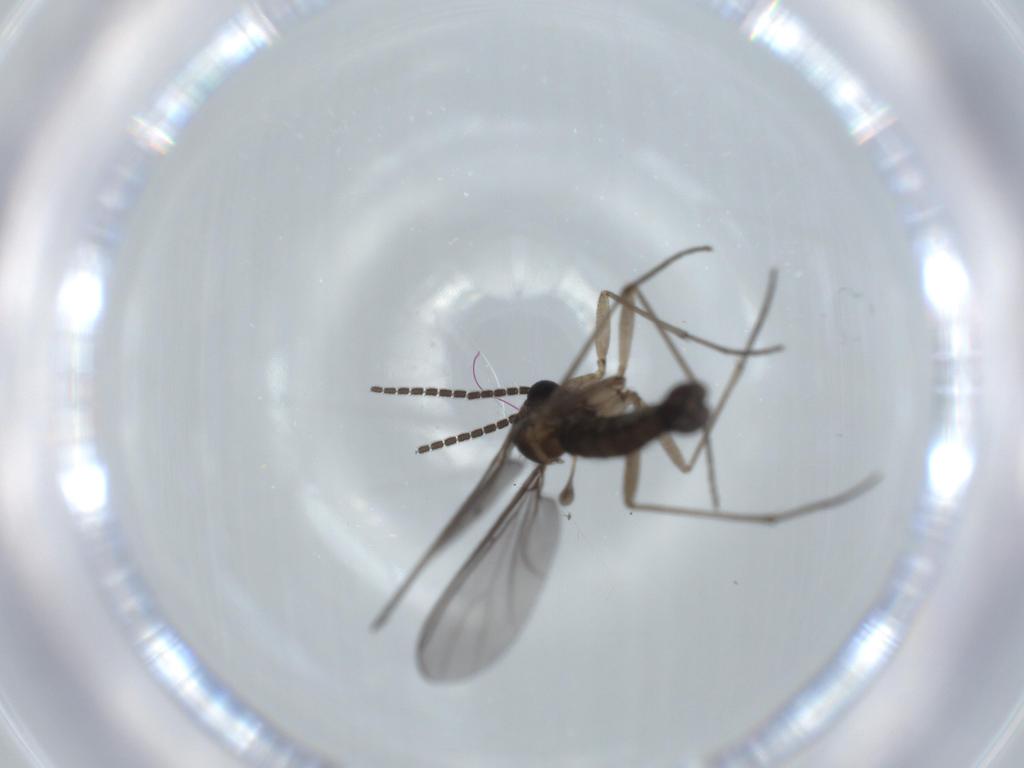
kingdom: Animalia
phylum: Arthropoda
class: Insecta
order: Diptera
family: Sciaridae
